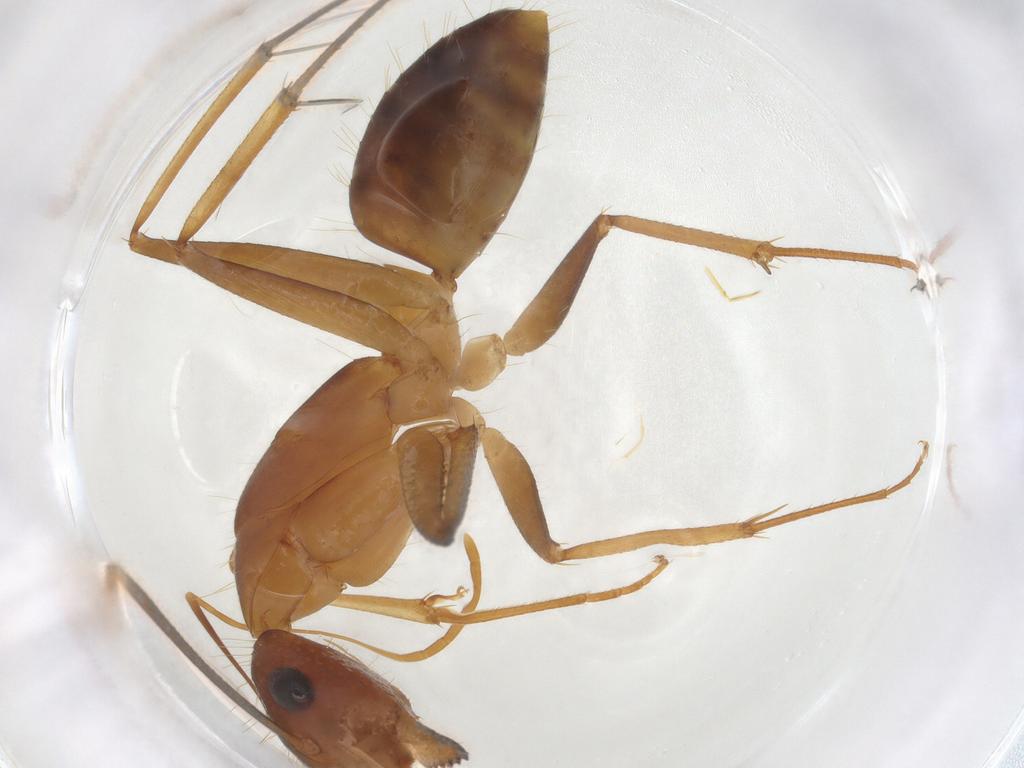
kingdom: Animalia
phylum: Arthropoda
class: Insecta
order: Hymenoptera
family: Formicidae
